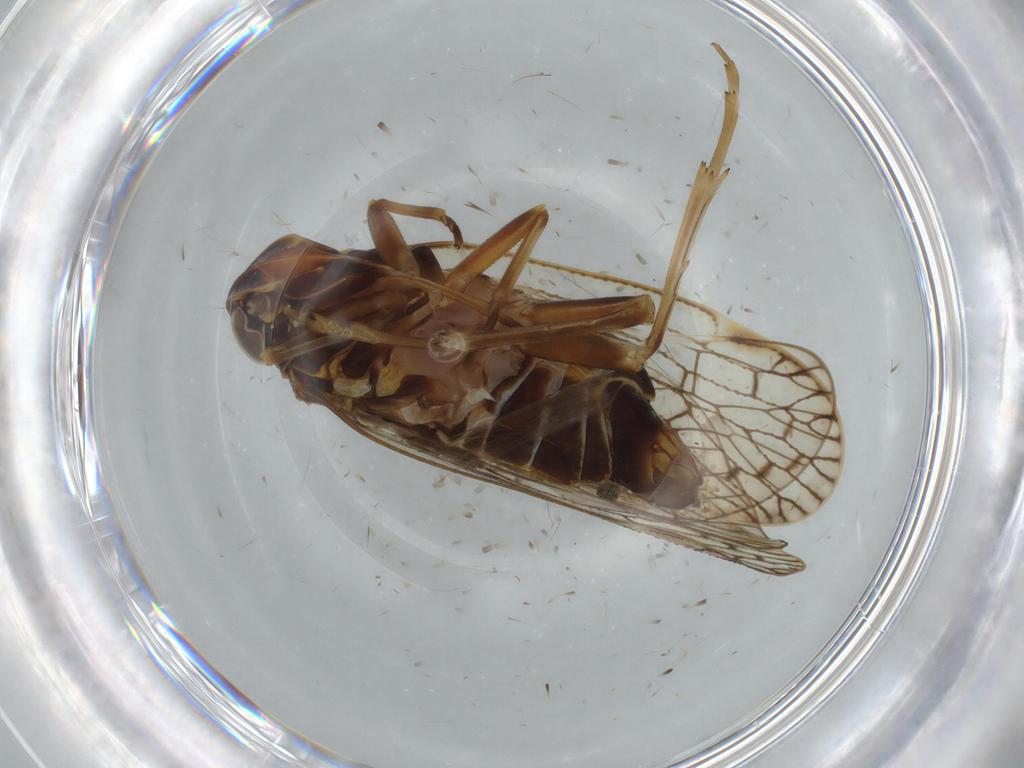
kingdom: Animalia
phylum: Arthropoda
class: Insecta
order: Hemiptera
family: Cixiidae
